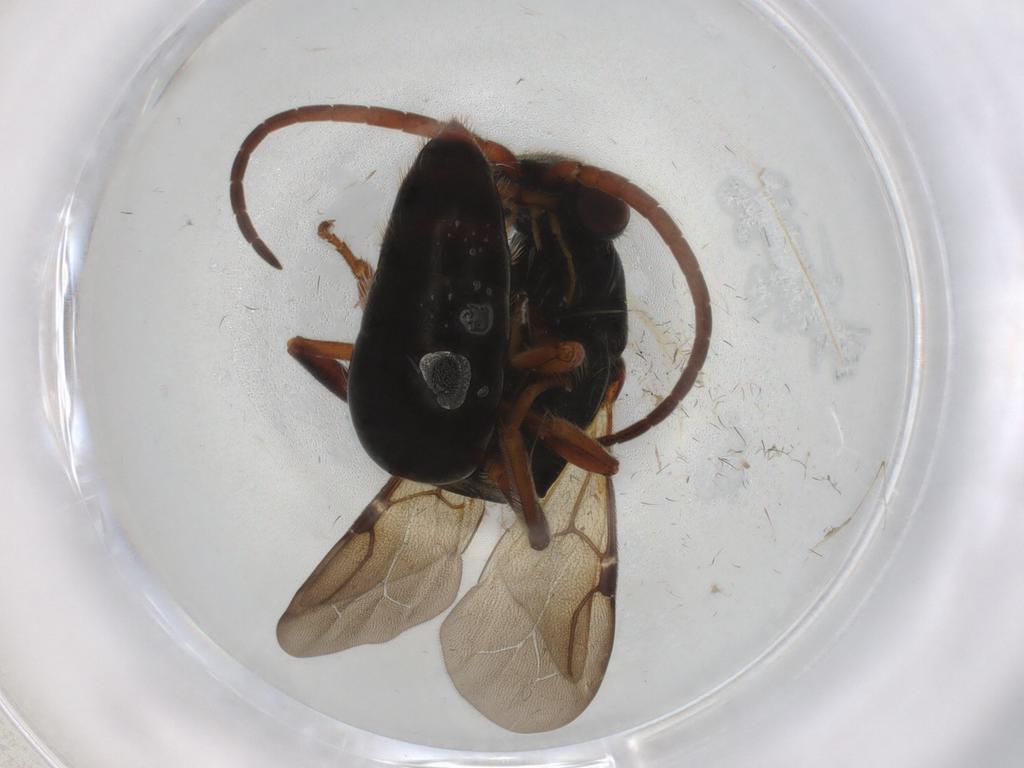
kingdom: Animalia
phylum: Arthropoda
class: Insecta
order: Hymenoptera
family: Bethylidae
